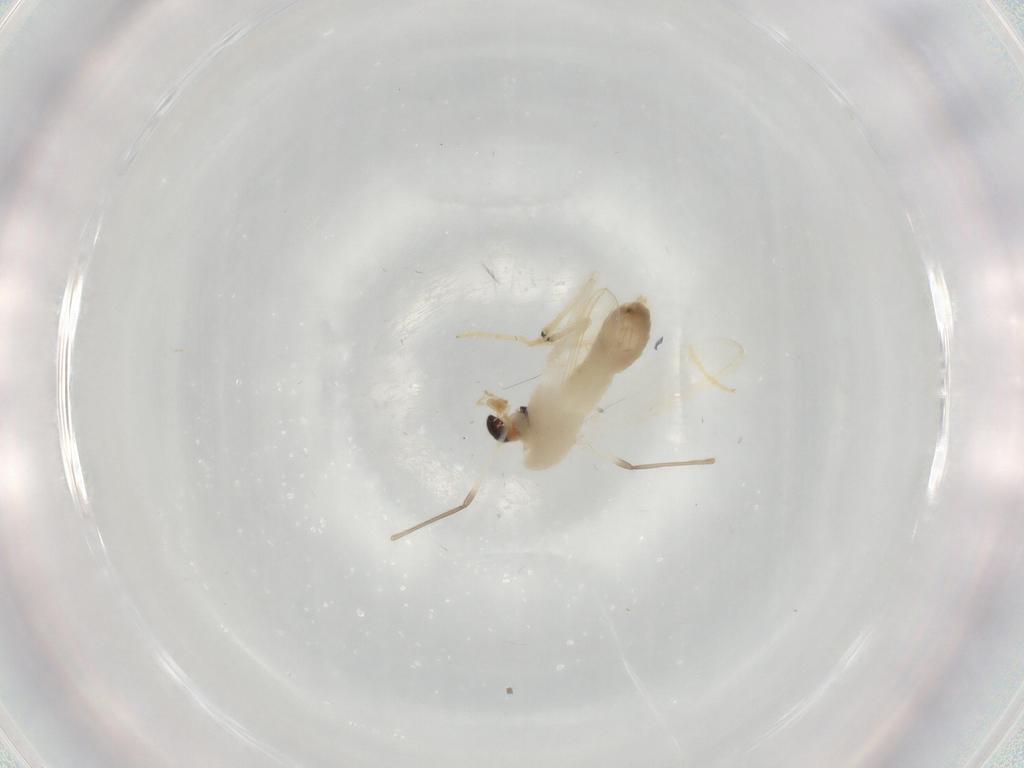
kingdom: Animalia
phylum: Arthropoda
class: Insecta
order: Diptera
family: Chironomidae
